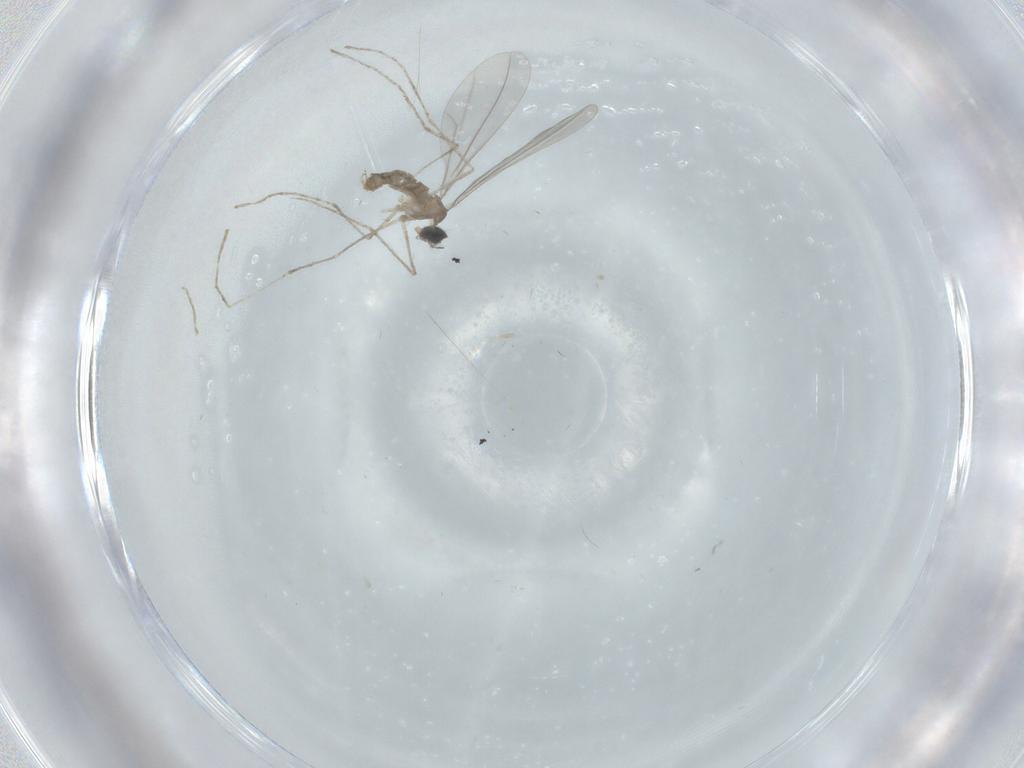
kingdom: Animalia
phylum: Arthropoda
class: Insecta
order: Diptera
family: Cecidomyiidae
